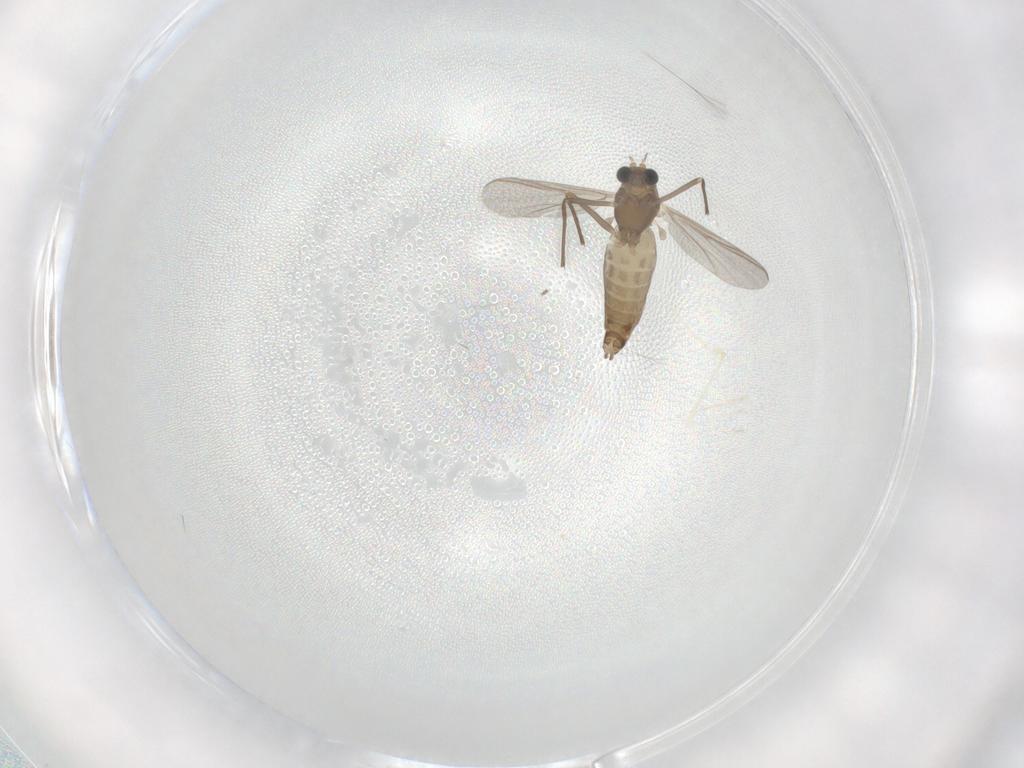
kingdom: Animalia
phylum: Arthropoda
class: Insecta
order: Diptera
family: Chironomidae
